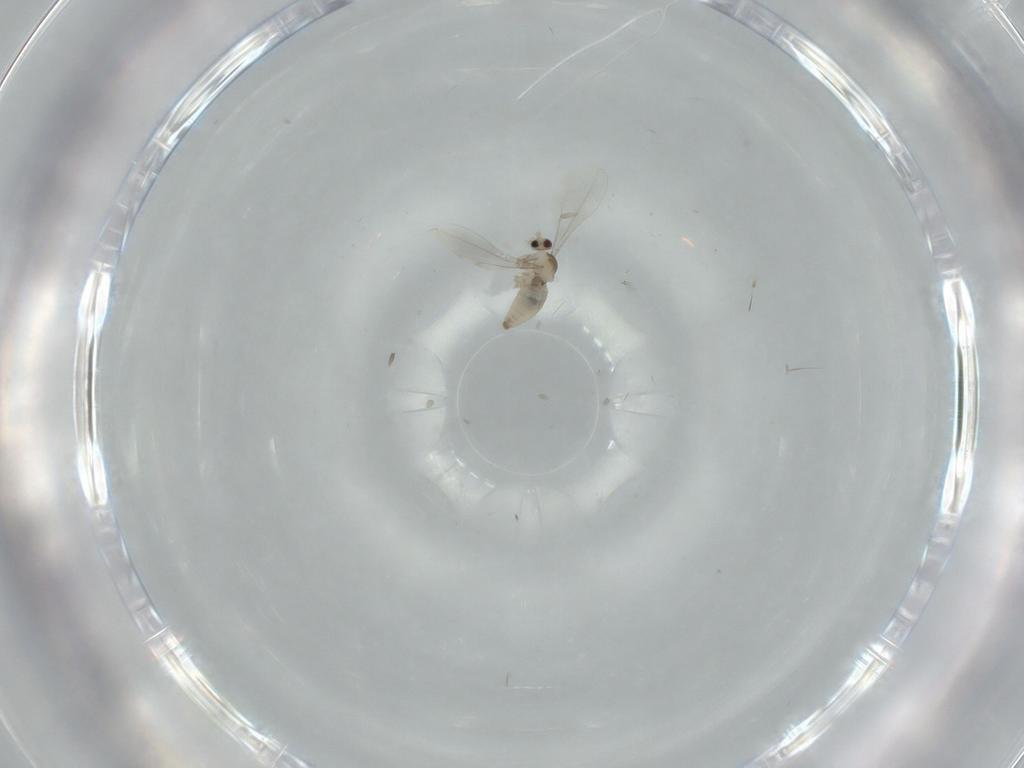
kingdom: Animalia
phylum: Arthropoda
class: Insecta
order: Diptera
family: Cecidomyiidae
